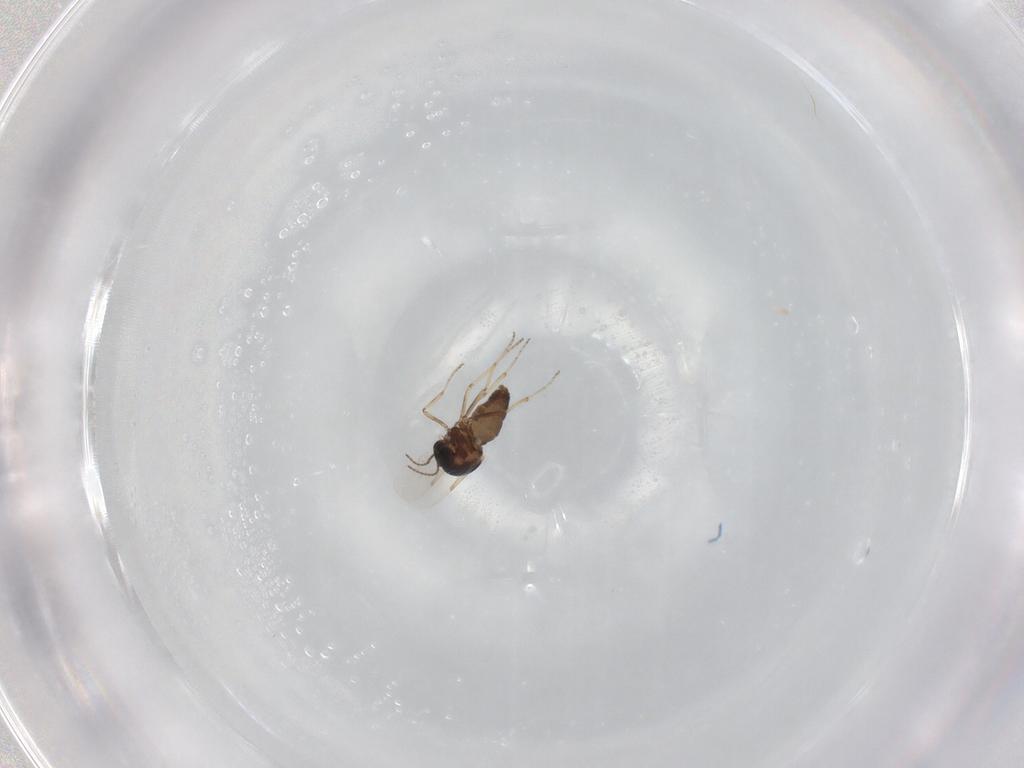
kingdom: Animalia
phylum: Arthropoda
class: Insecta
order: Diptera
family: Ceratopogonidae
